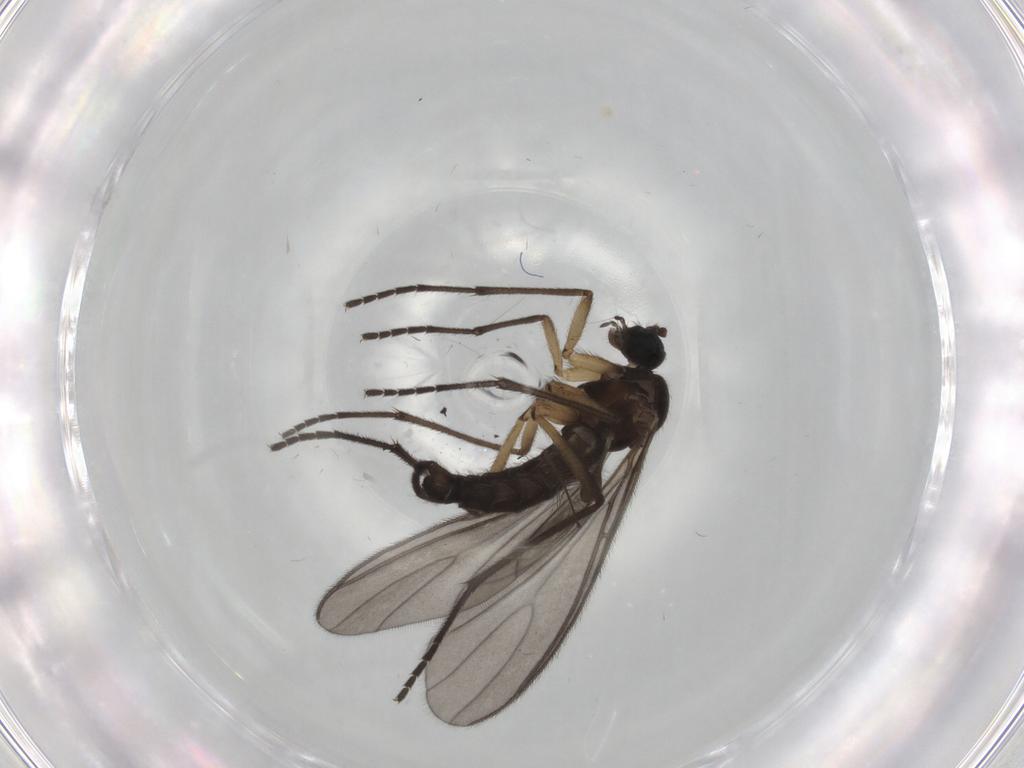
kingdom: Animalia
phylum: Arthropoda
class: Insecta
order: Diptera
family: Sciaridae
